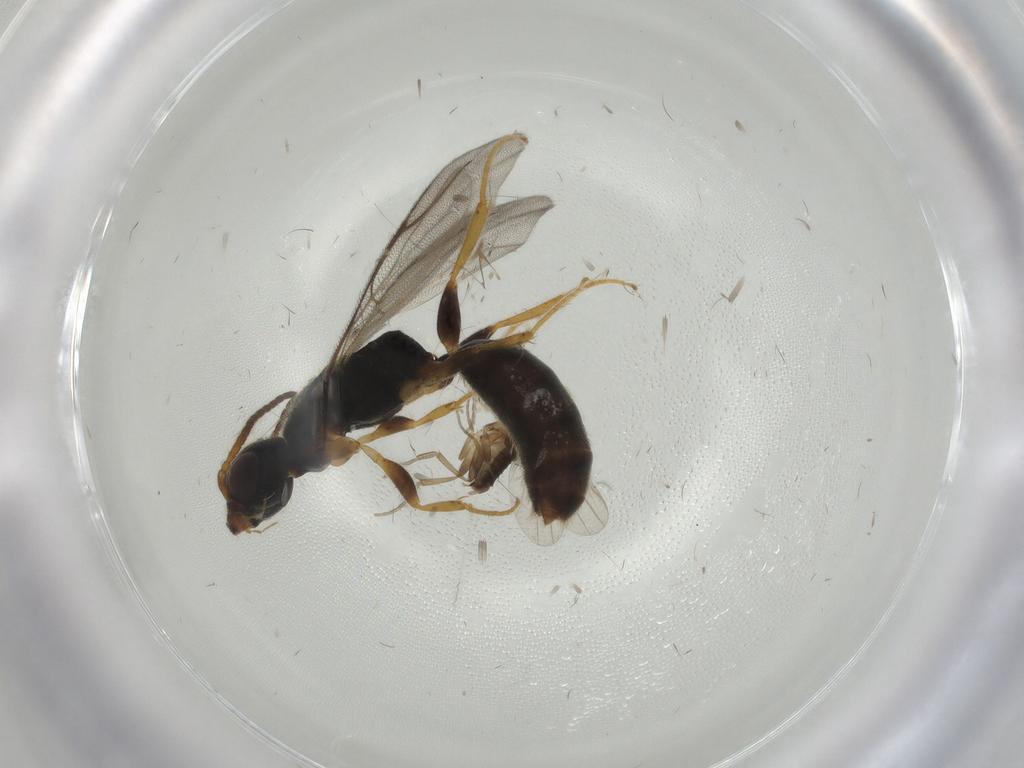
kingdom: Animalia
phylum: Arthropoda
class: Insecta
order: Diptera
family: Phoridae
